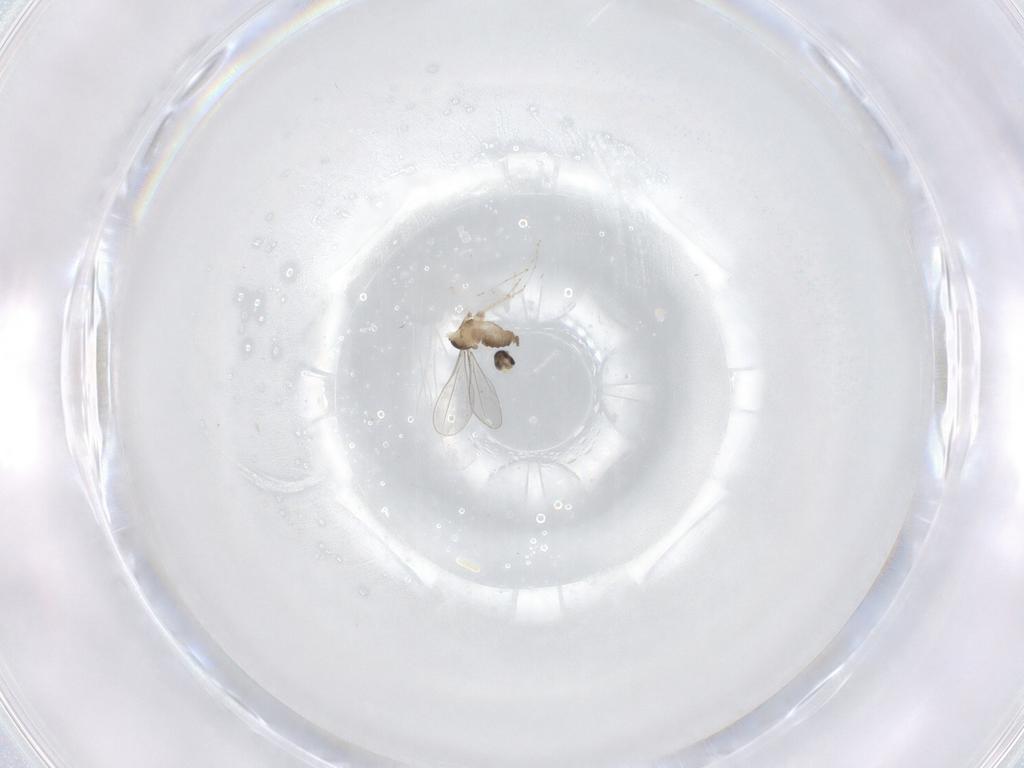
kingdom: Animalia
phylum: Arthropoda
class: Insecta
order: Diptera
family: Cecidomyiidae
